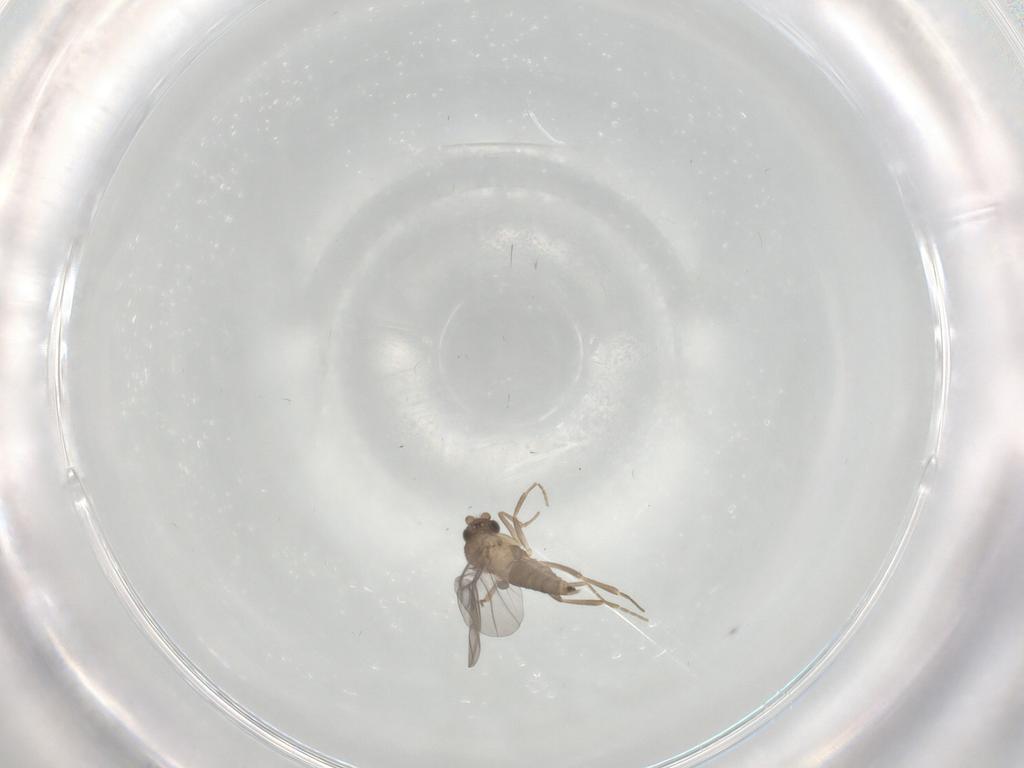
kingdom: Animalia
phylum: Arthropoda
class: Insecta
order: Diptera
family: Ceratopogonidae
